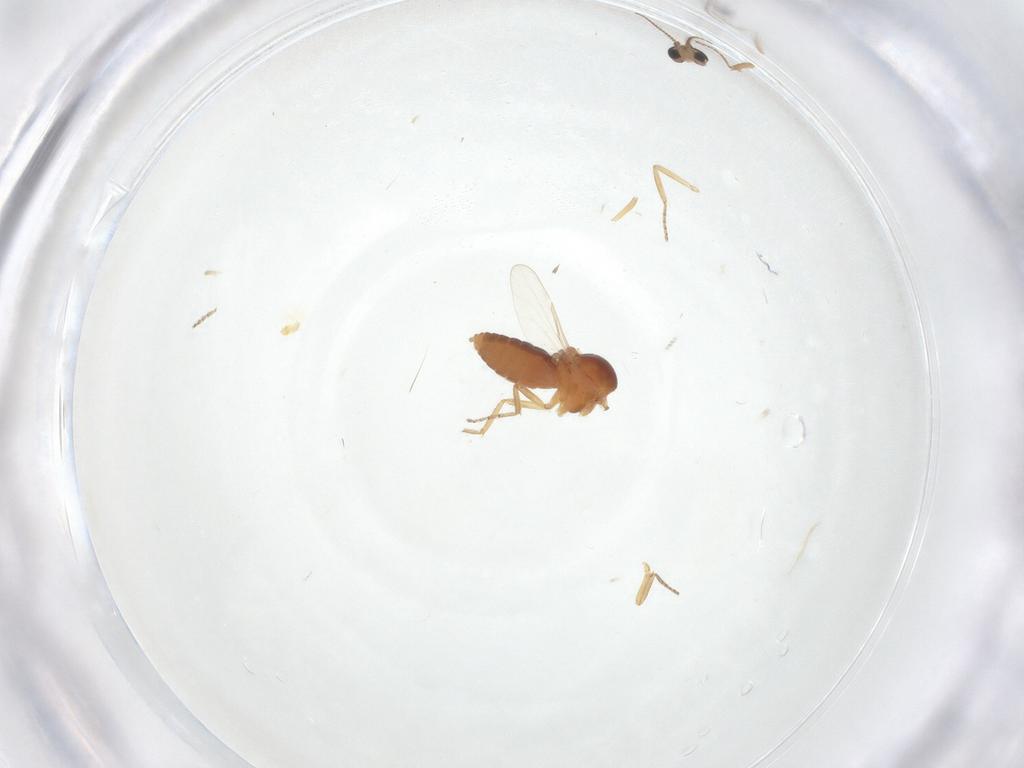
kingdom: Animalia
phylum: Arthropoda
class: Insecta
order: Diptera
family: Ceratopogonidae
